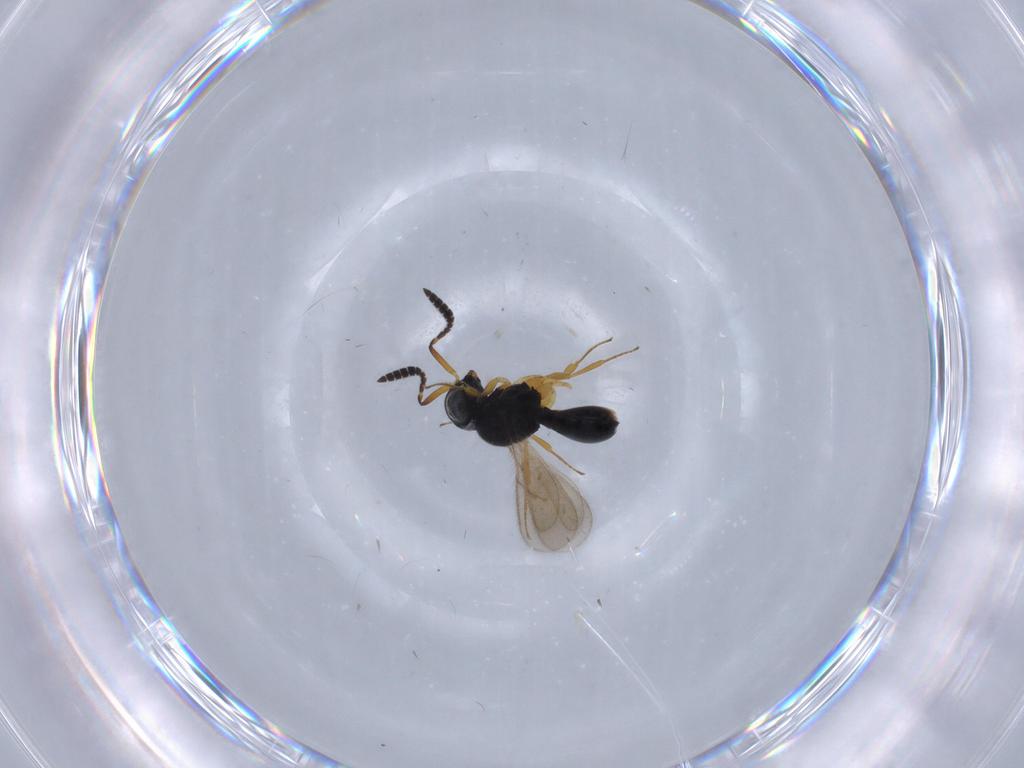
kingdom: Animalia
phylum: Arthropoda
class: Insecta
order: Hymenoptera
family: Scelionidae
